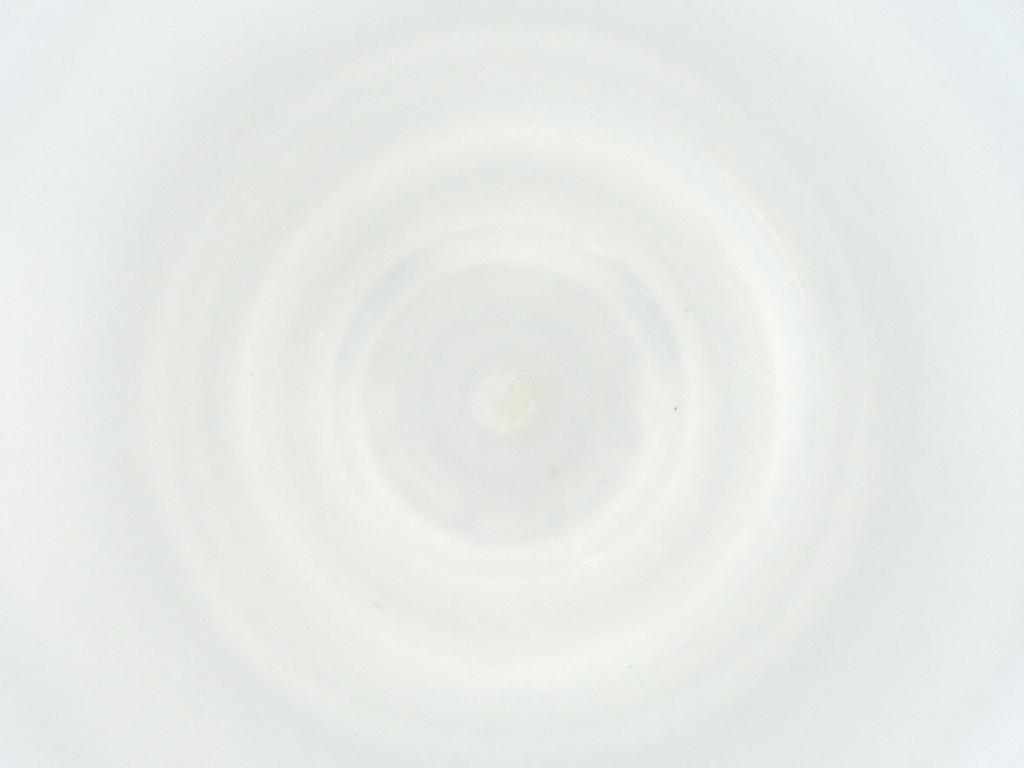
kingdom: Animalia
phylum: Arthropoda
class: Arachnida
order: Mesostigmata
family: Phytoseiidae
